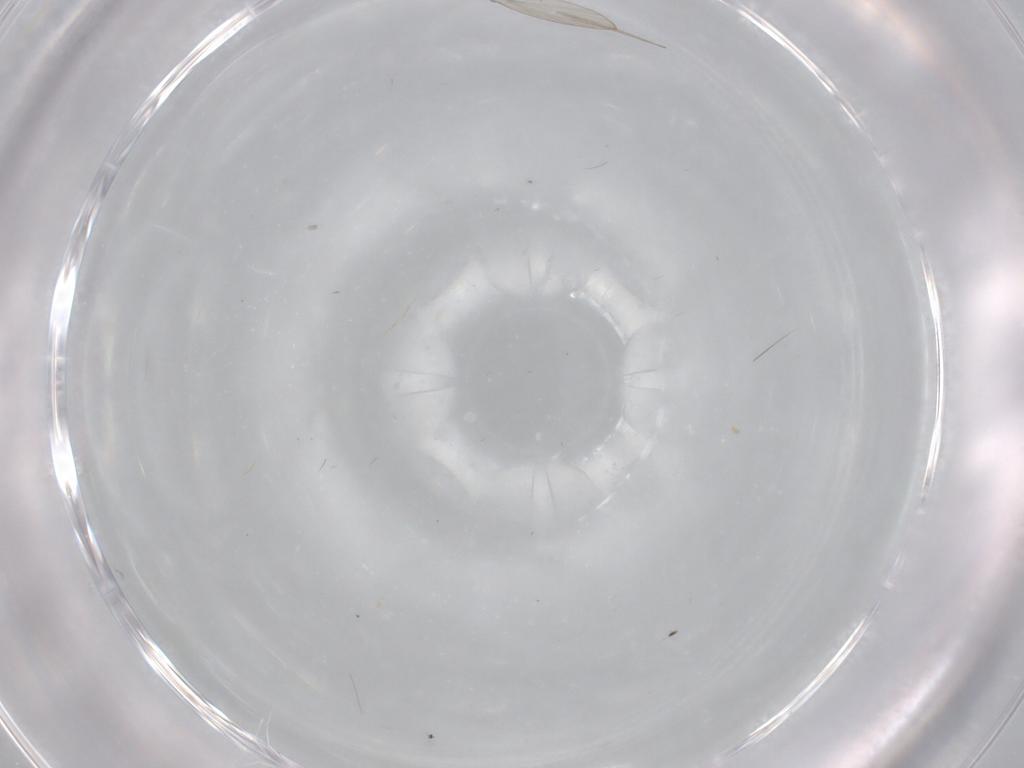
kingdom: Animalia
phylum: Arthropoda
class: Insecta
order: Diptera
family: Psychodidae
